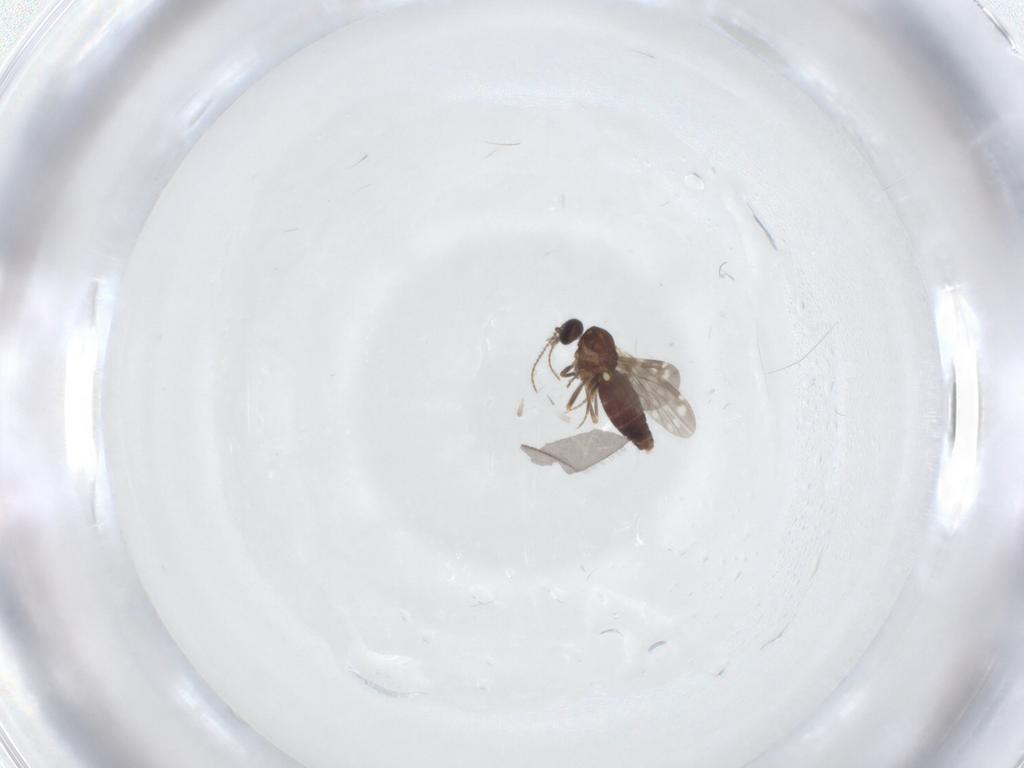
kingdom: Animalia
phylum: Arthropoda
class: Insecta
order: Diptera
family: Ceratopogonidae
